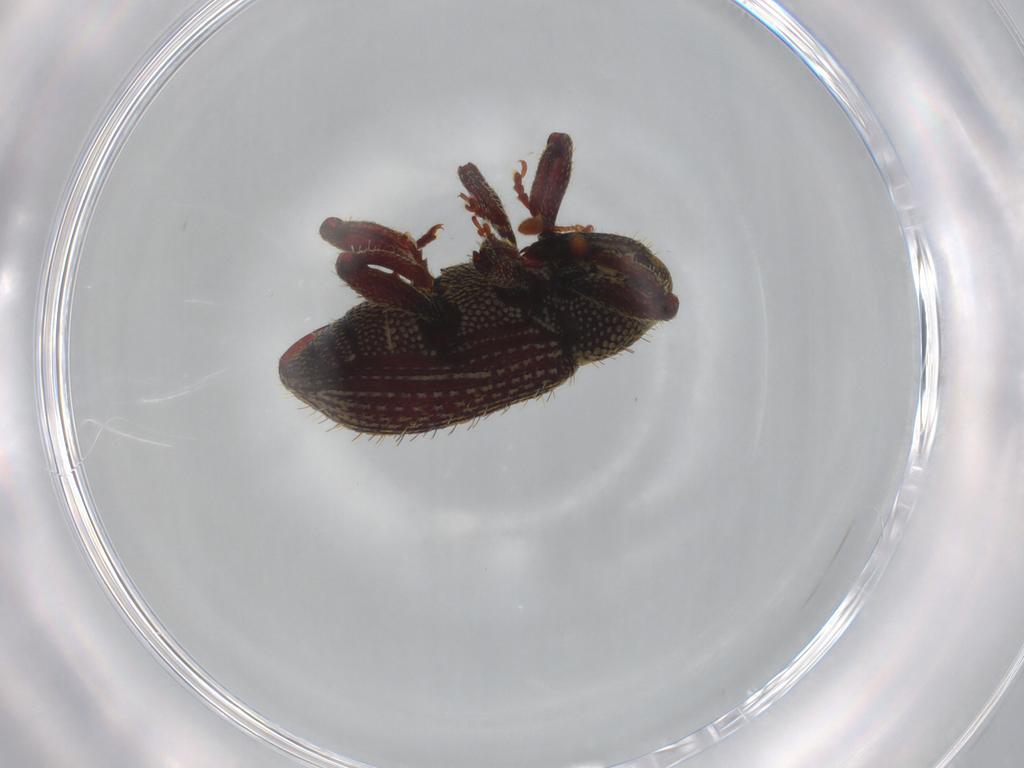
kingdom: Animalia
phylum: Arthropoda
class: Insecta
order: Coleoptera
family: Curculionidae
